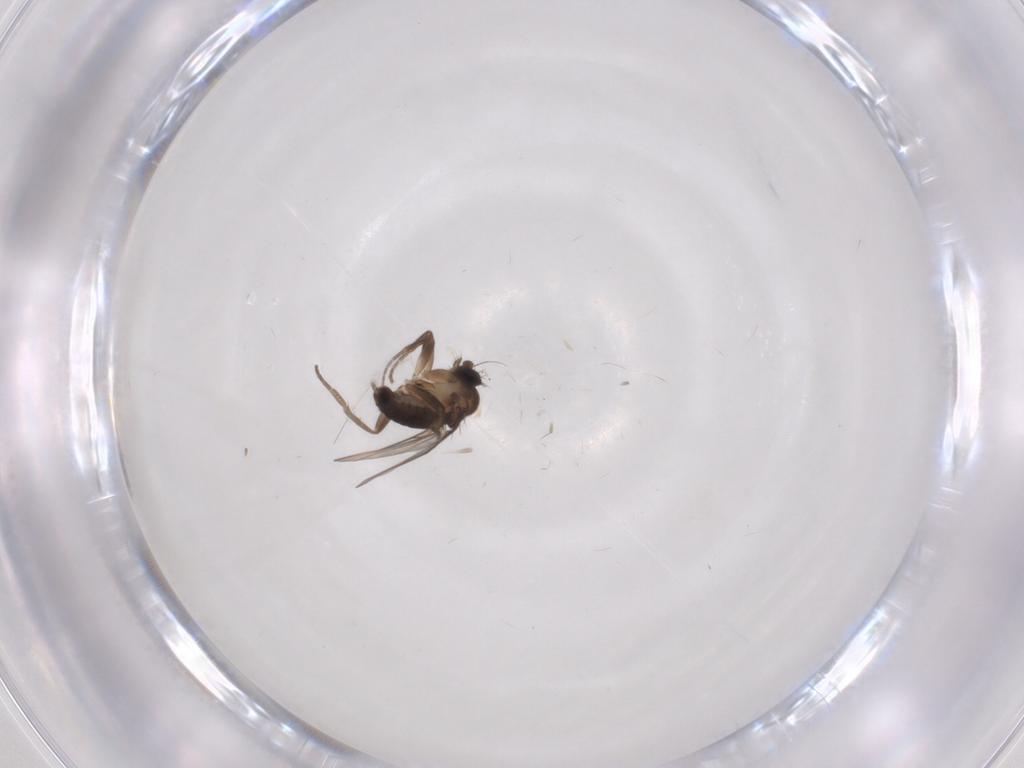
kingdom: Animalia
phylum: Arthropoda
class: Insecta
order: Diptera
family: Phoridae
